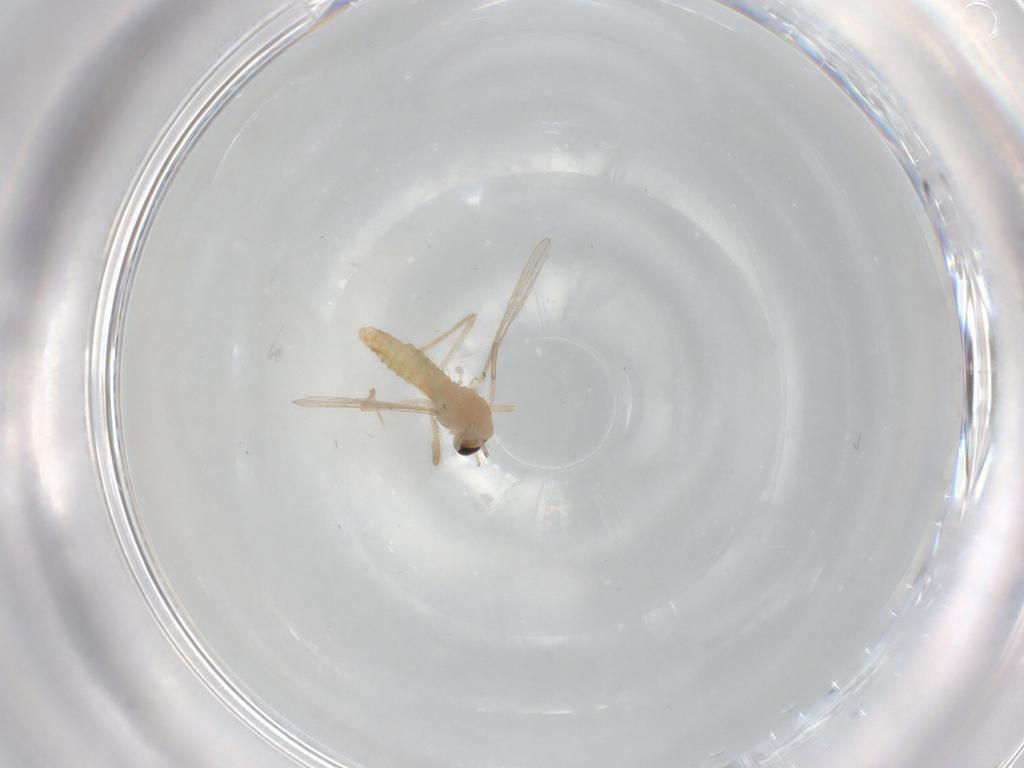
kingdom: Animalia
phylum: Arthropoda
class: Insecta
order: Diptera
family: Chironomidae
